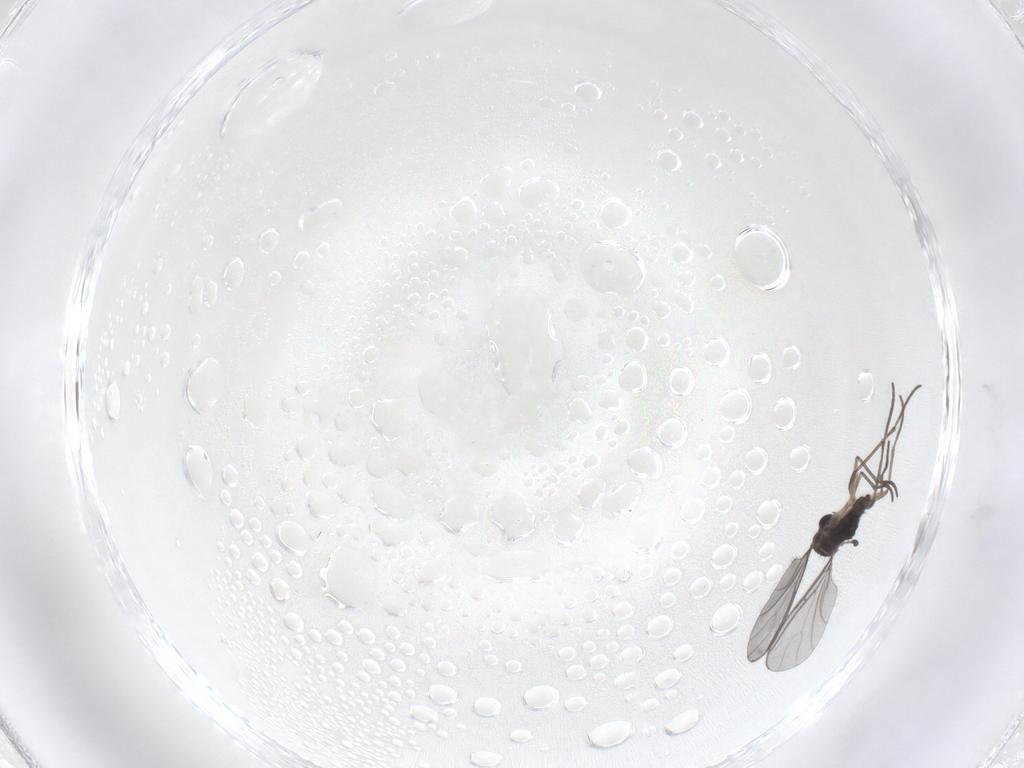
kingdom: Animalia
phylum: Arthropoda
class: Insecta
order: Diptera
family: Sciaridae
